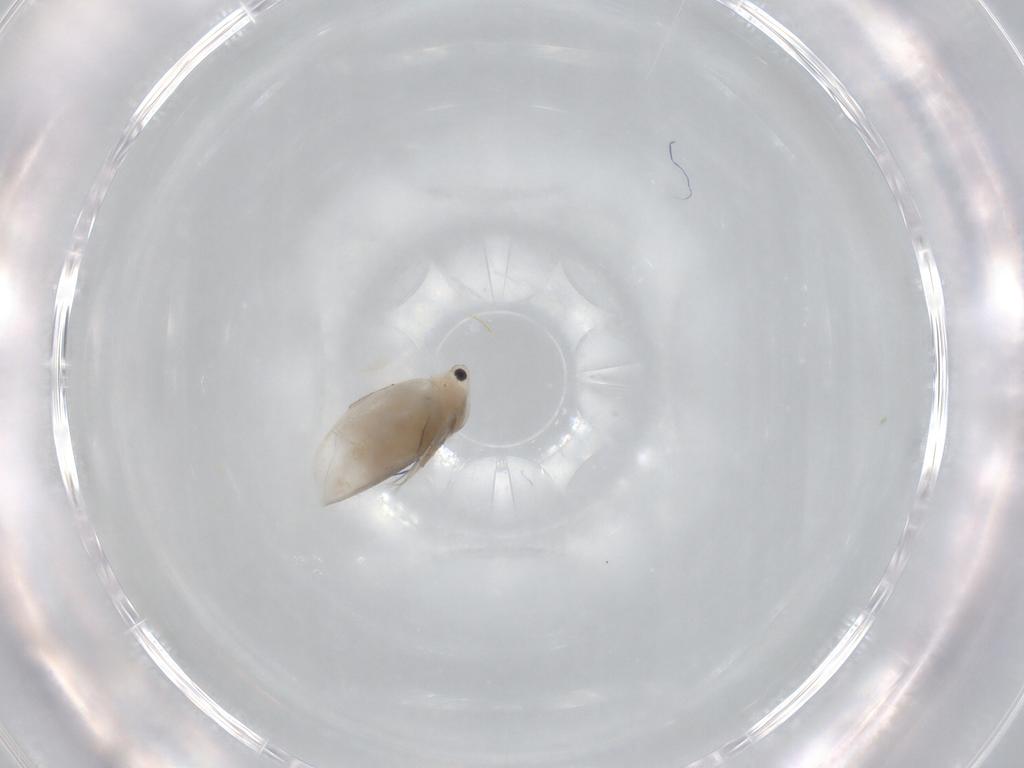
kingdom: Animalia
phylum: Arthropoda
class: Branchiopoda
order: Diplostraca
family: Daphniidae
